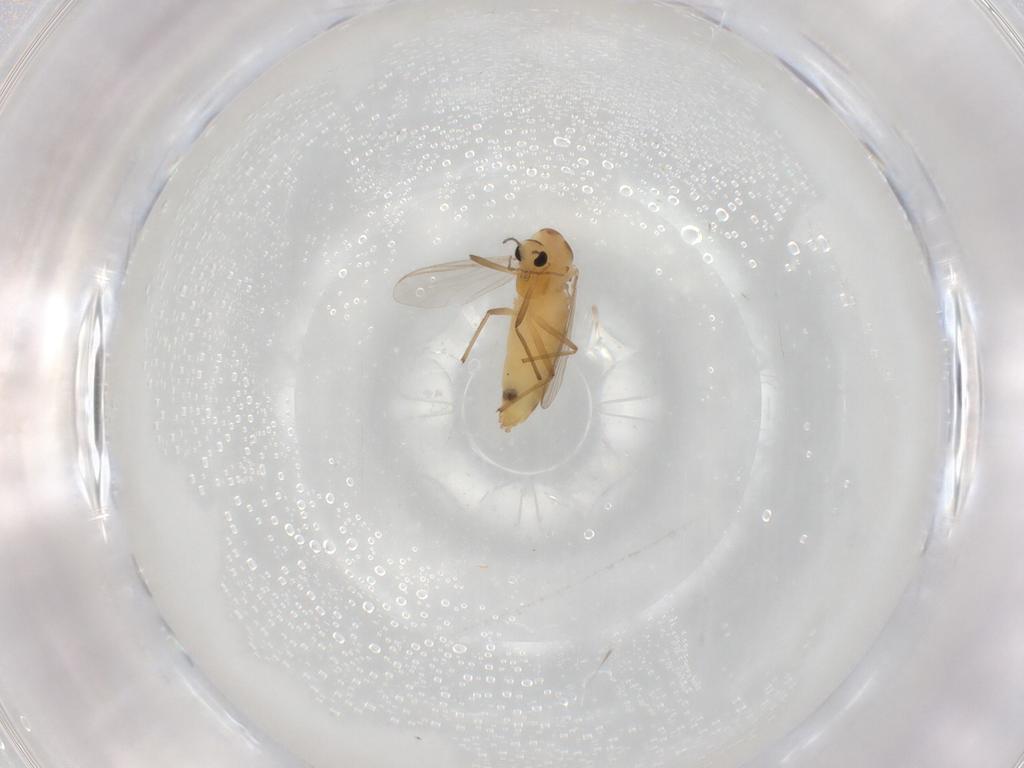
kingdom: Animalia
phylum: Arthropoda
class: Insecta
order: Diptera
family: Chironomidae
